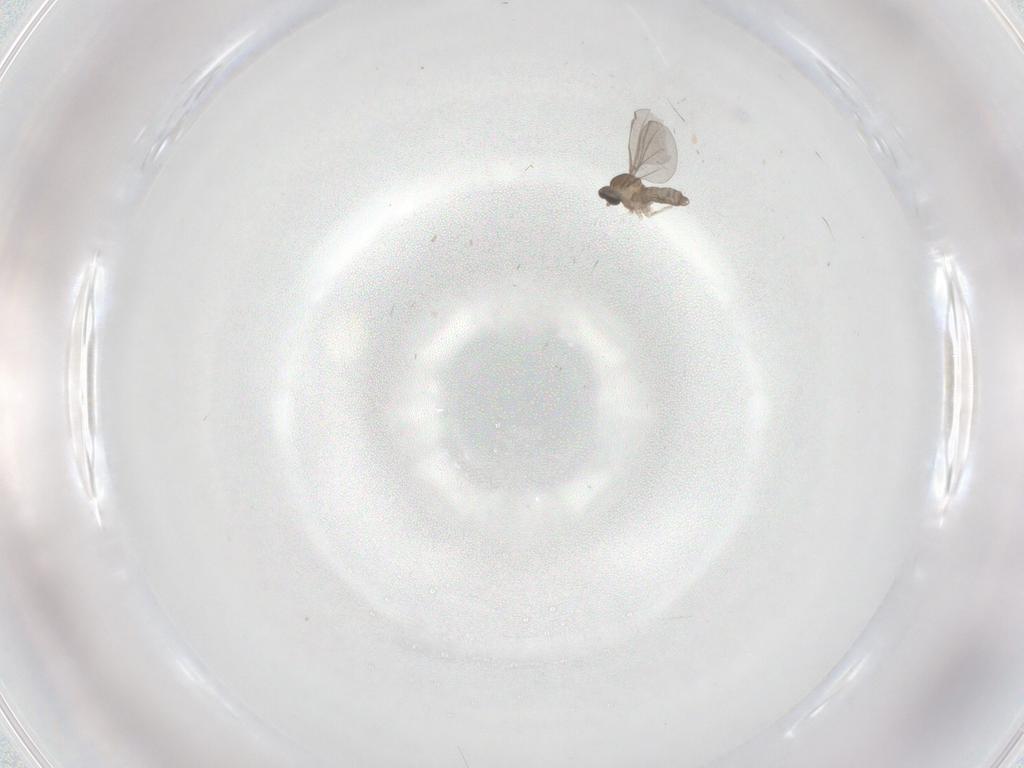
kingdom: Animalia
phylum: Arthropoda
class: Insecta
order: Diptera
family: Cecidomyiidae
